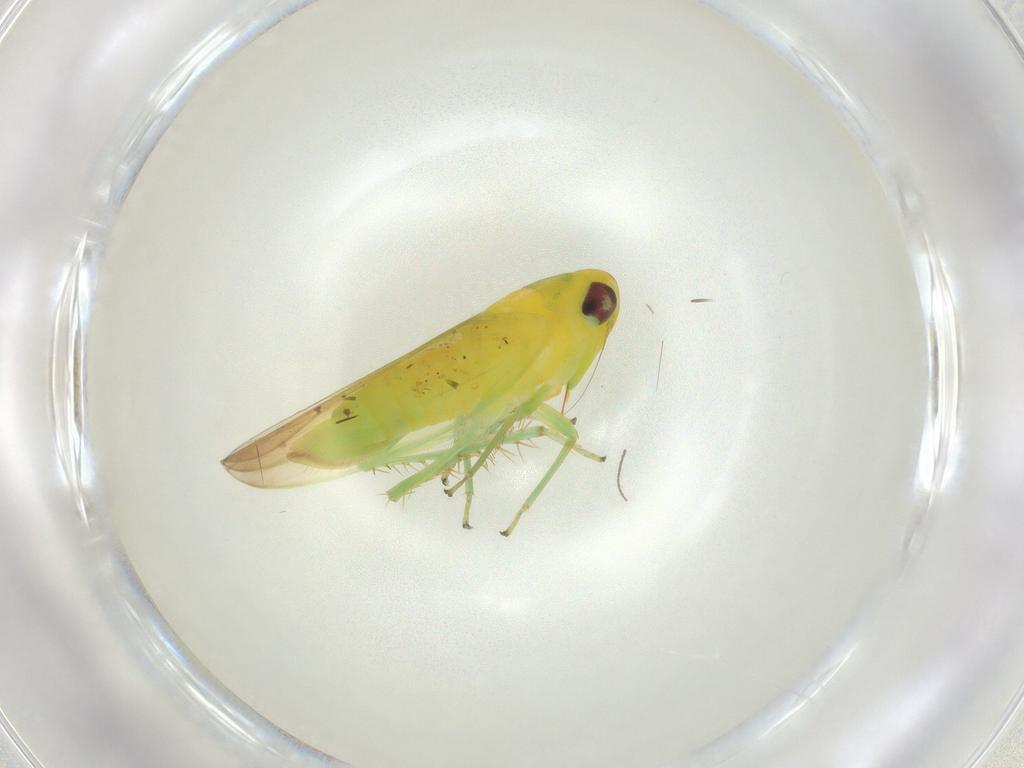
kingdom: Animalia
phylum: Arthropoda
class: Insecta
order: Hemiptera
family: Cicadellidae
